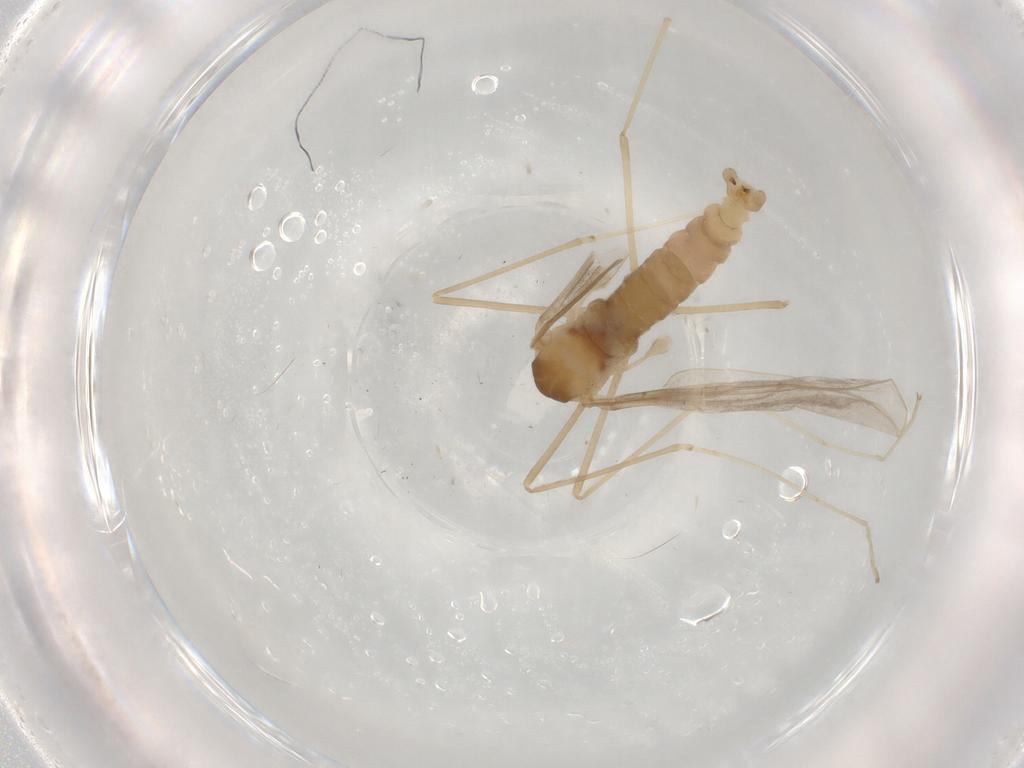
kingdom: Animalia
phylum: Arthropoda
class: Insecta
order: Diptera
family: Cecidomyiidae
